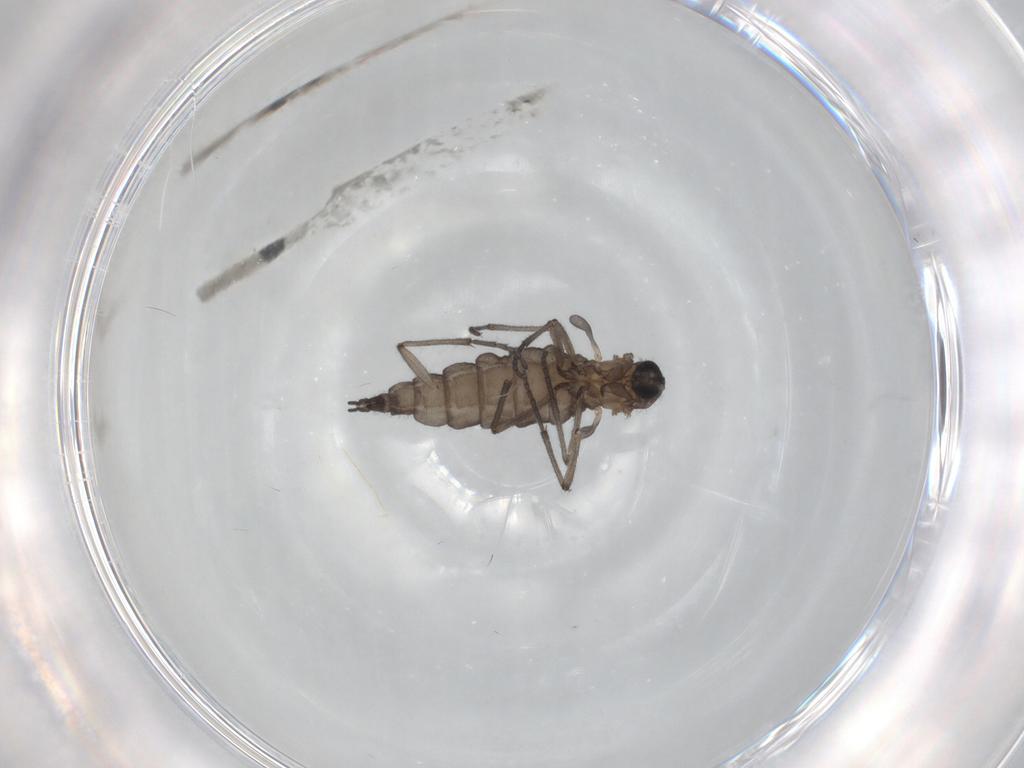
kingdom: Animalia
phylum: Arthropoda
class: Insecta
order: Diptera
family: Sciaridae
